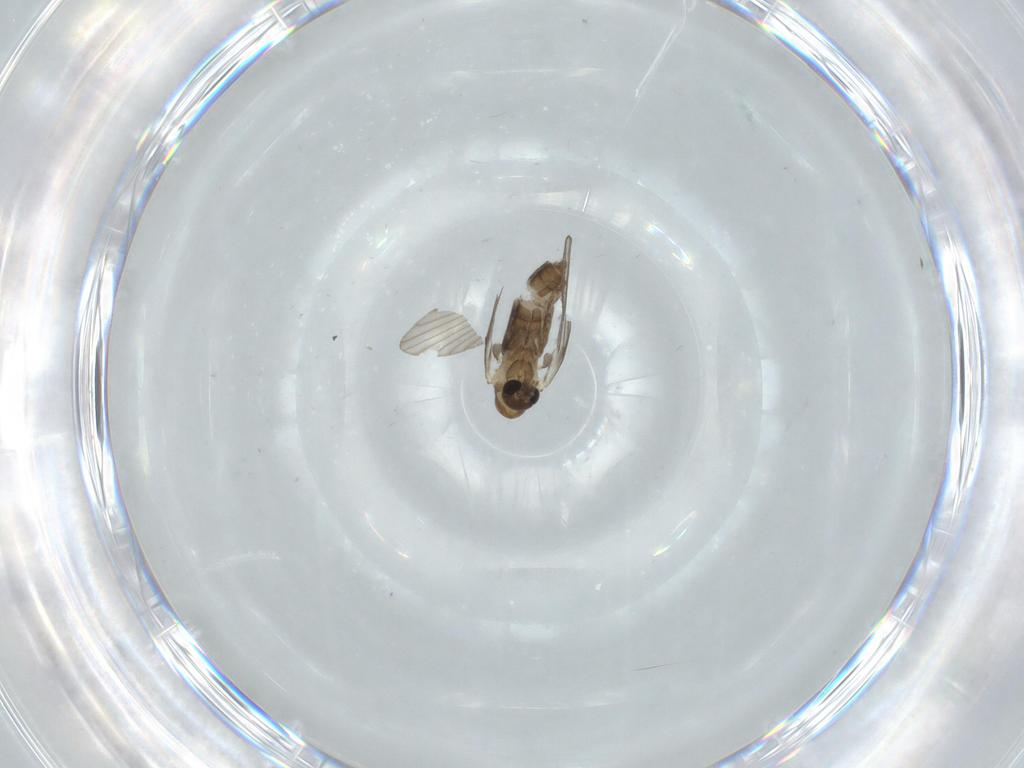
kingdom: Animalia
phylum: Arthropoda
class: Insecta
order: Diptera
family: Psychodidae
